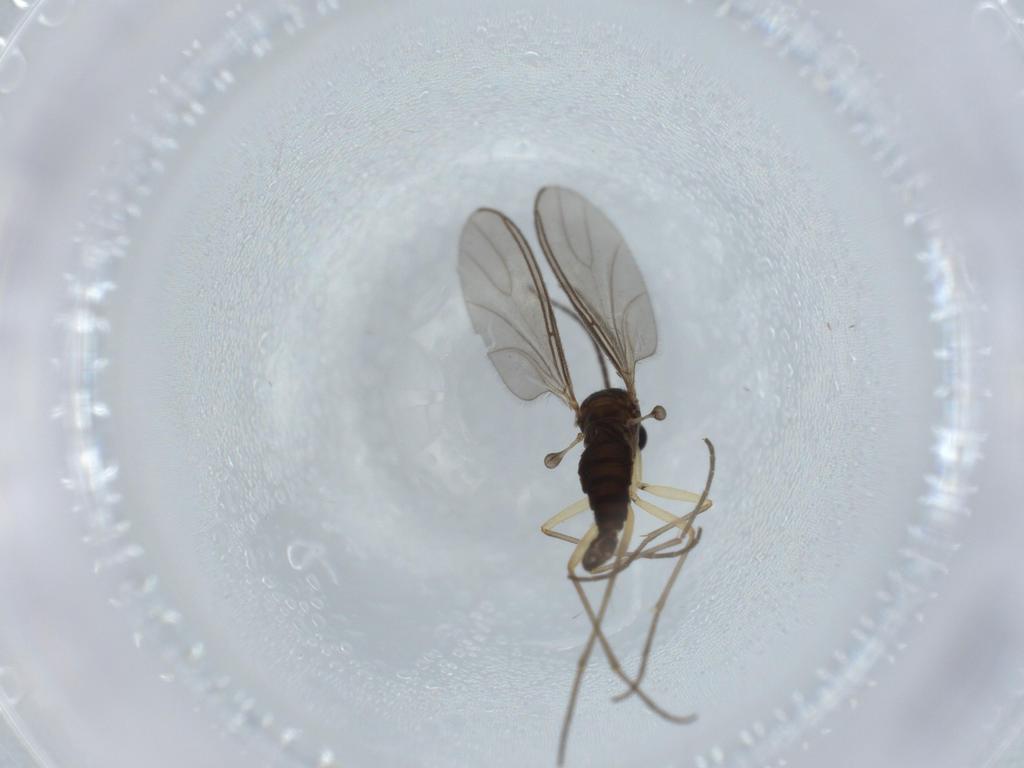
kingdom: Animalia
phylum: Arthropoda
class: Insecta
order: Diptera
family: Sciaridae
